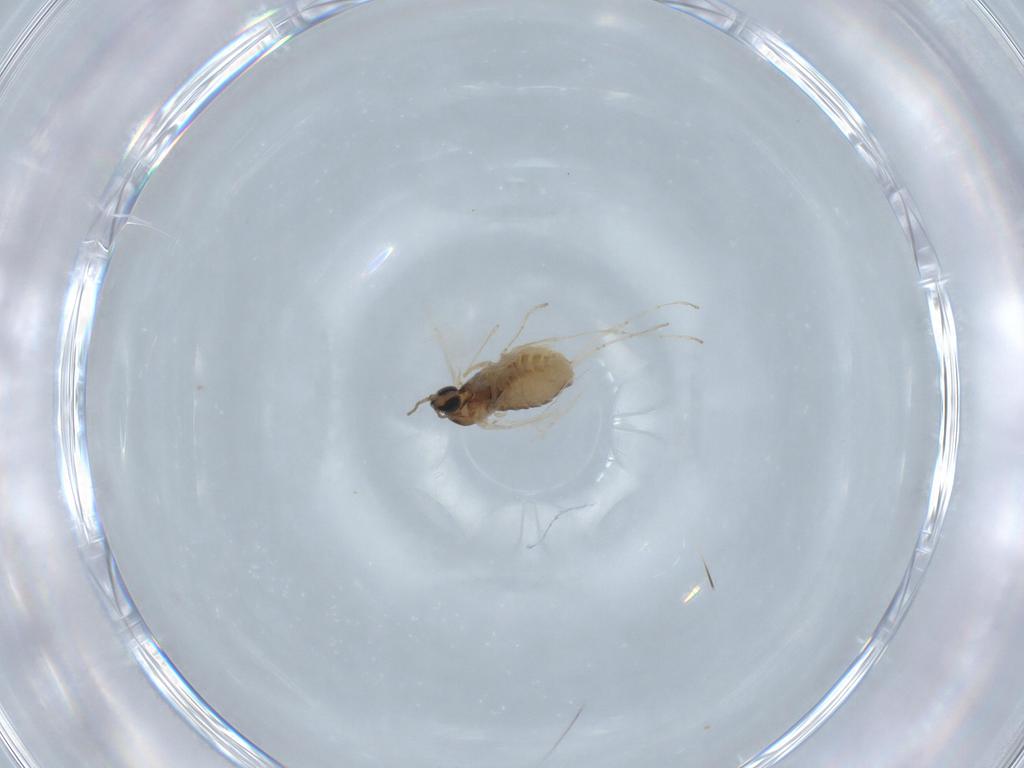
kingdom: Animalia
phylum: Arthropoda
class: Insecta
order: Diptera
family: Cecidomyiidae
